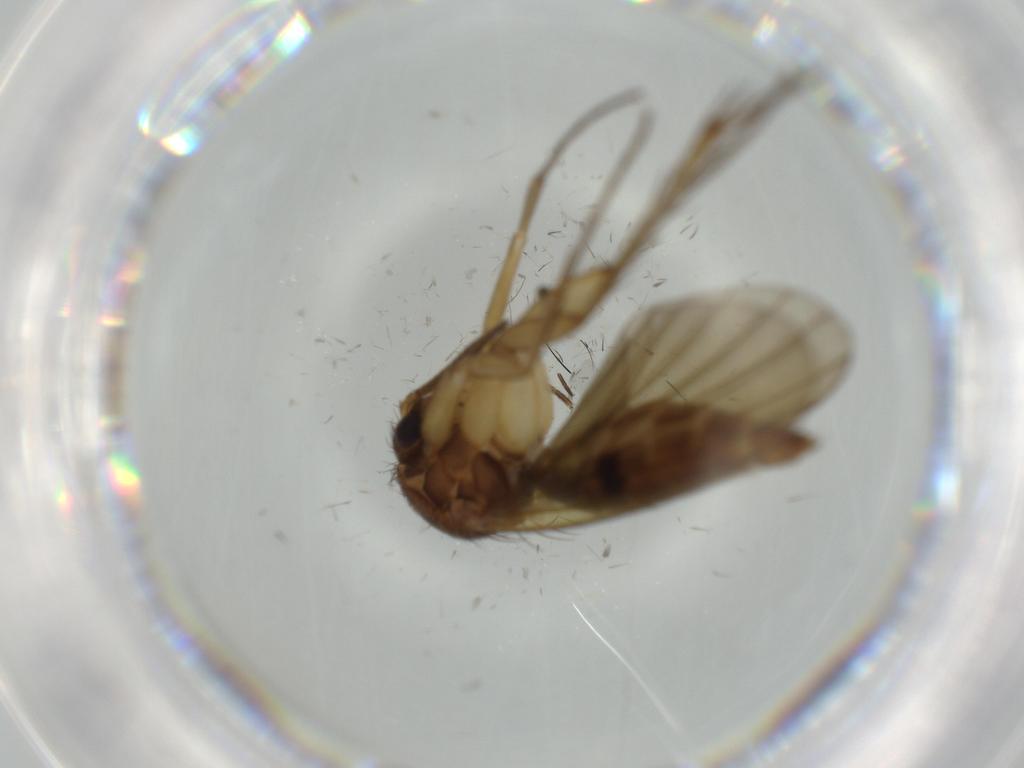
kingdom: Animalia
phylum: Arthropoda
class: Insecta
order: Diptera
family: Mycetophilidae
